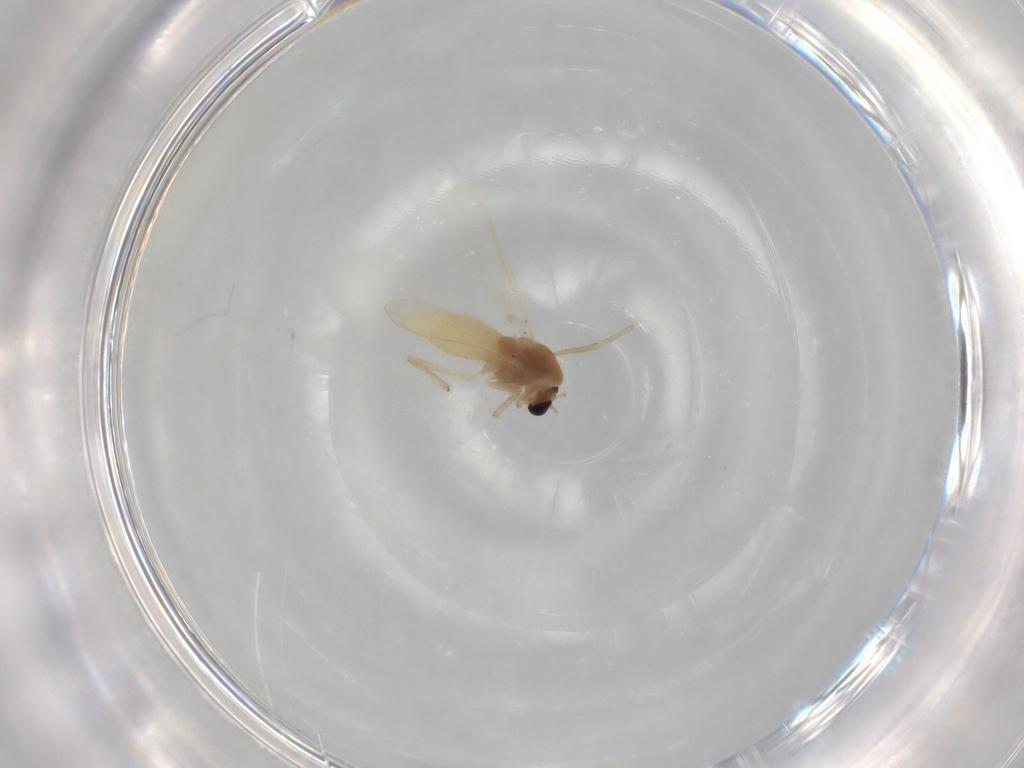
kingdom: Animalia
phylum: Arthropoda
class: Insecta
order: Diptera
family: Chironomidae
